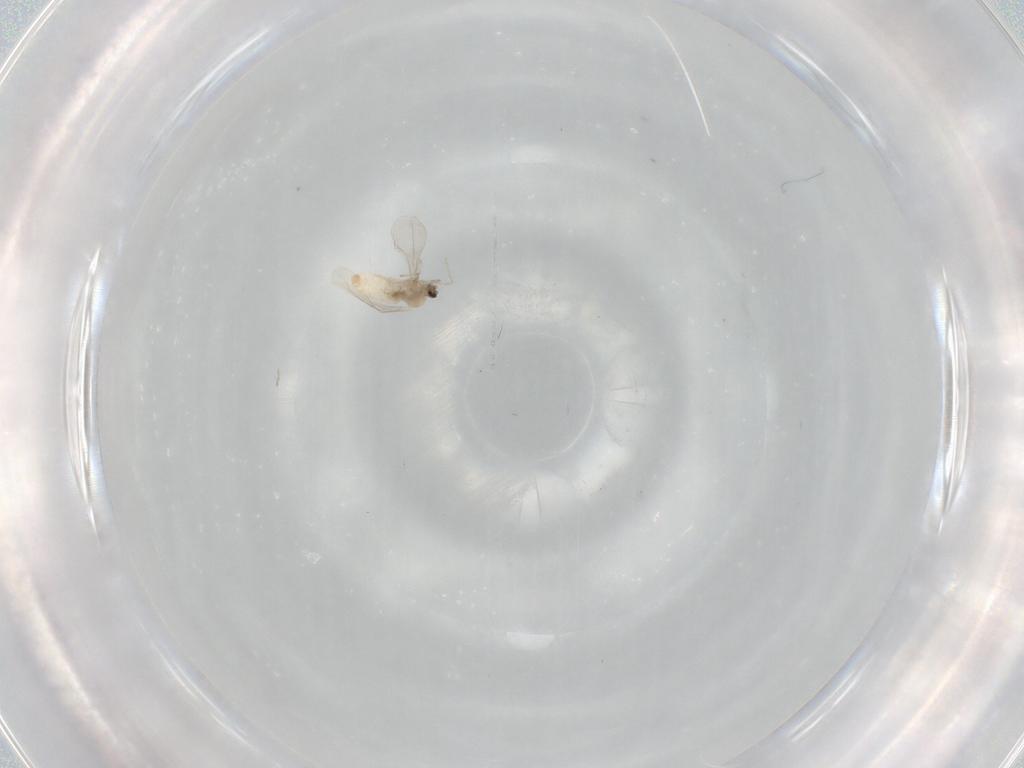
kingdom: Animalia
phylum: Arthropoda
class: Insecta
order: Diptera
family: Cecidomyiidae
